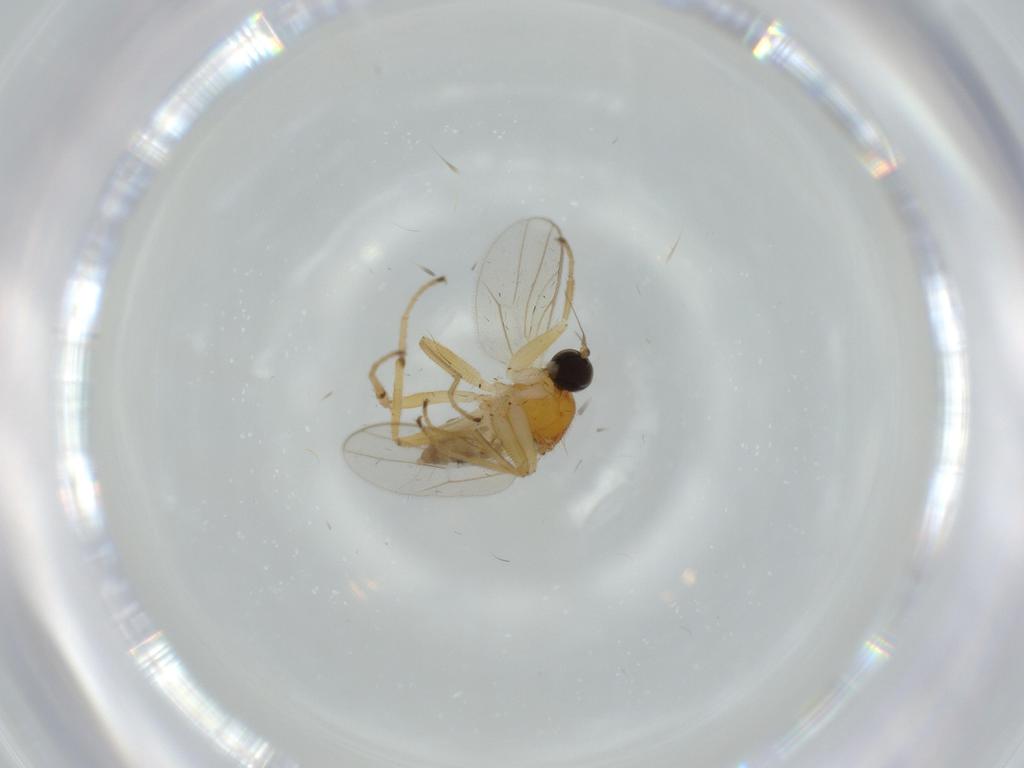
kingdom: Animalia
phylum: Arthropoda
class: Insecta
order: Diptera
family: Hybotidae
